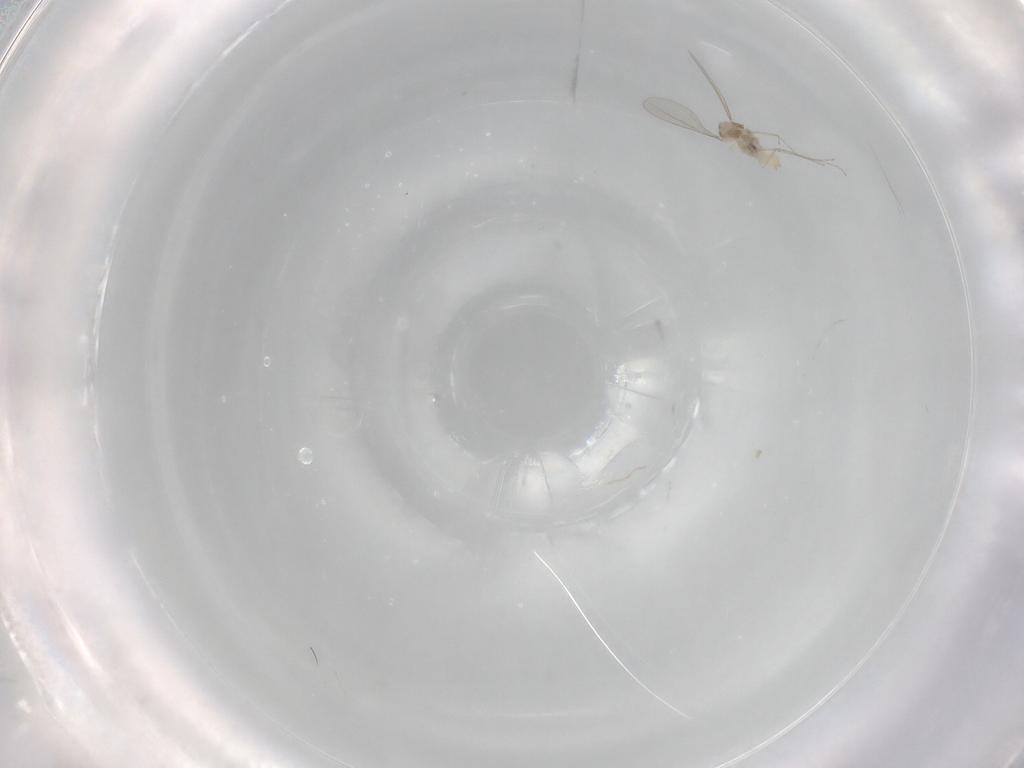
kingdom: Animalia
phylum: Arthropoda
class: Insecta
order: Diptera
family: Cecidomyiidae
